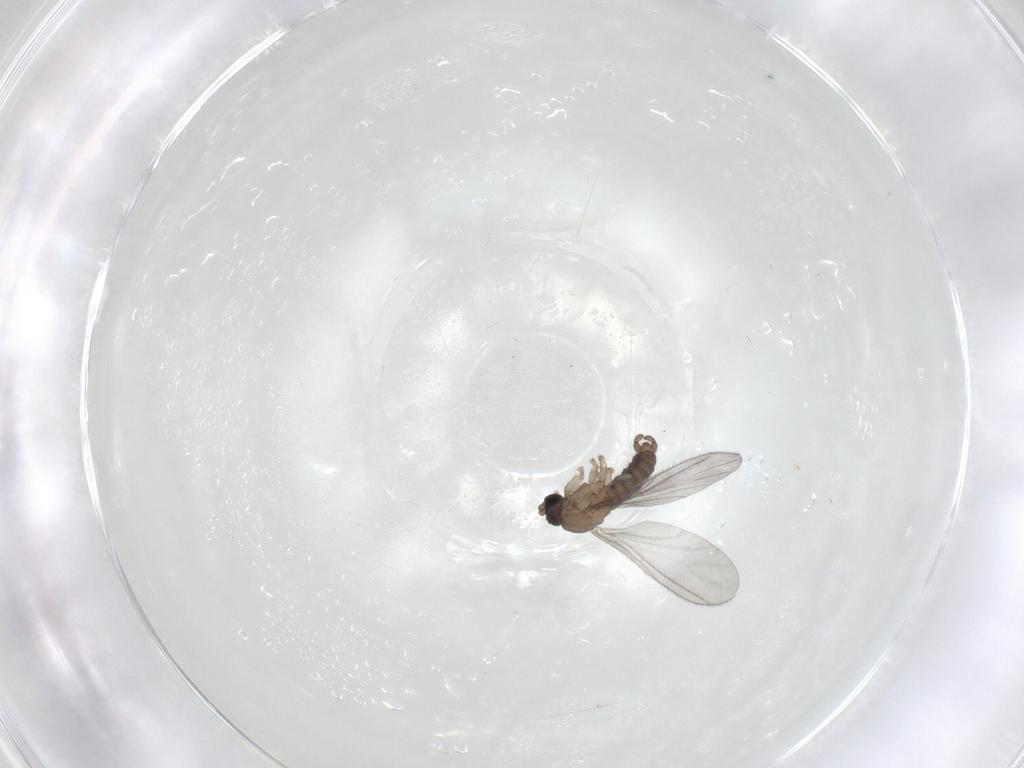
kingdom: Animalia
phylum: Arthropoda
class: Insecta
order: Diptera
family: Sciaridae
